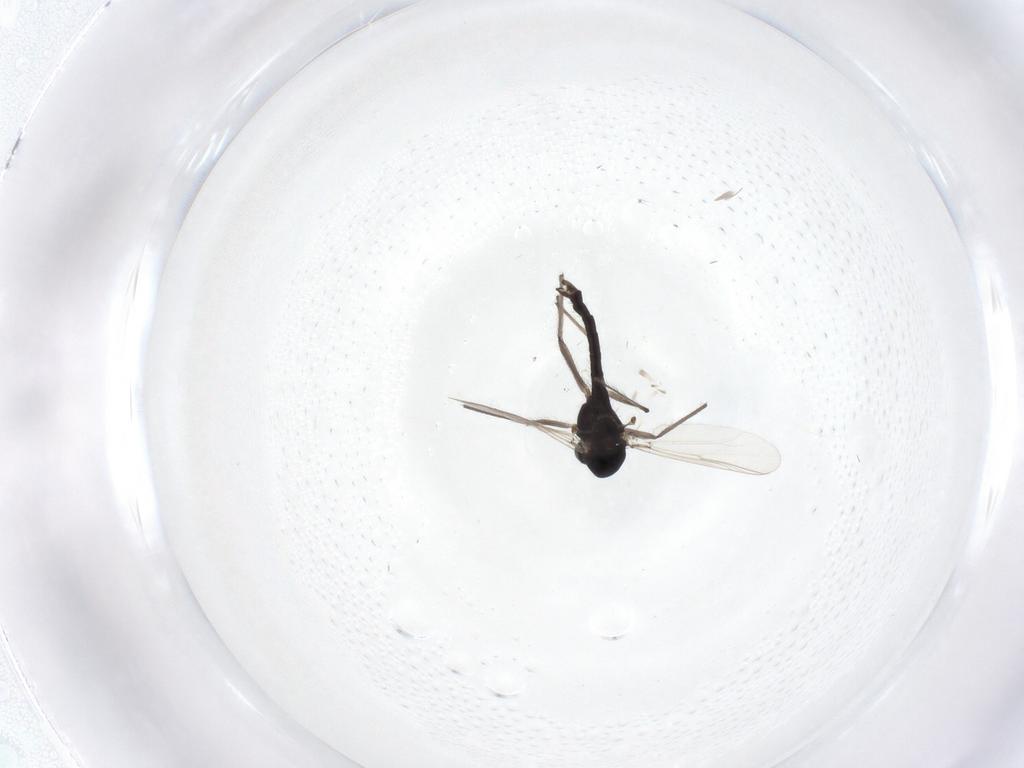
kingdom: Animalia
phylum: Arthropoda
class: Insecta
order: Diptera
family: Chironomidae
